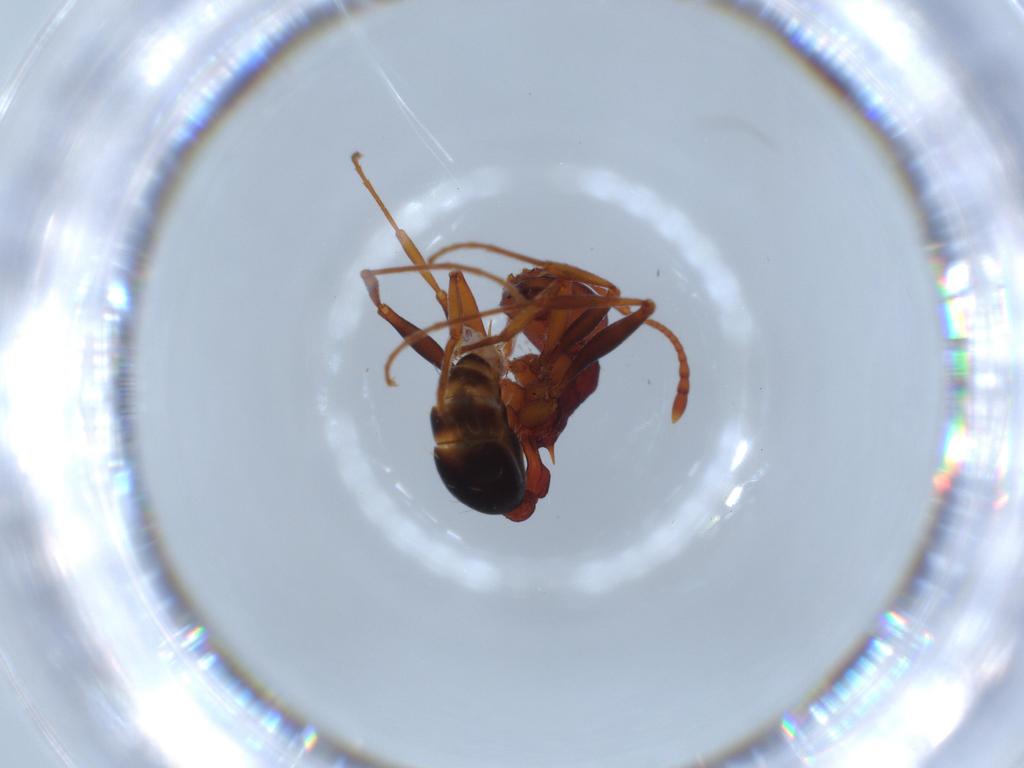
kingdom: Animalia
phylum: Arthropoda
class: Insecta
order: Hymenoptera
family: Formicidae
